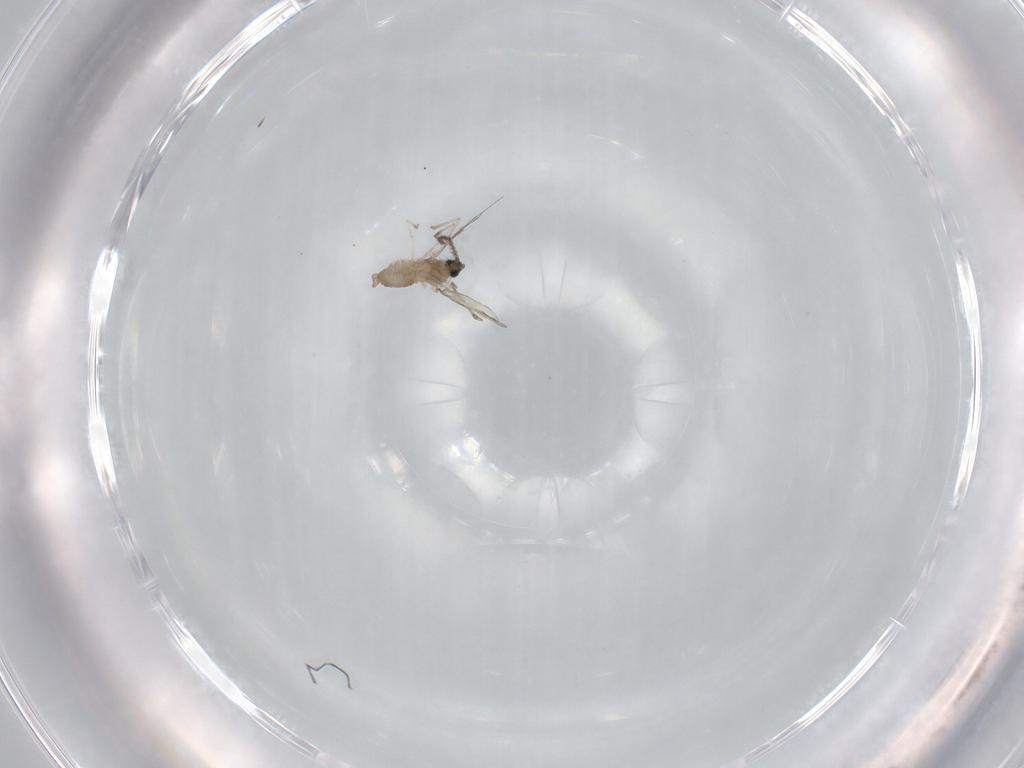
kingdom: Animalia
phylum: Arthropoda
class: Insecta
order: Diptera
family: Cecidomyiidae
